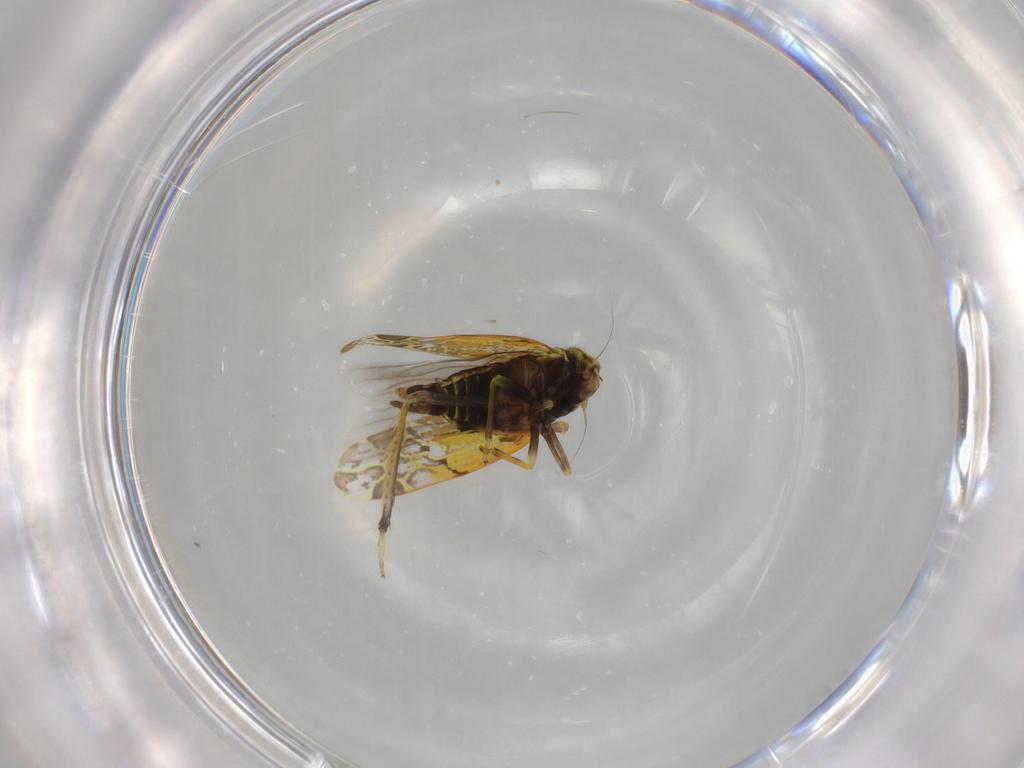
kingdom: Animalia
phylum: Arthropoda
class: Insecta
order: Hemiptera
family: Cicadellidae
